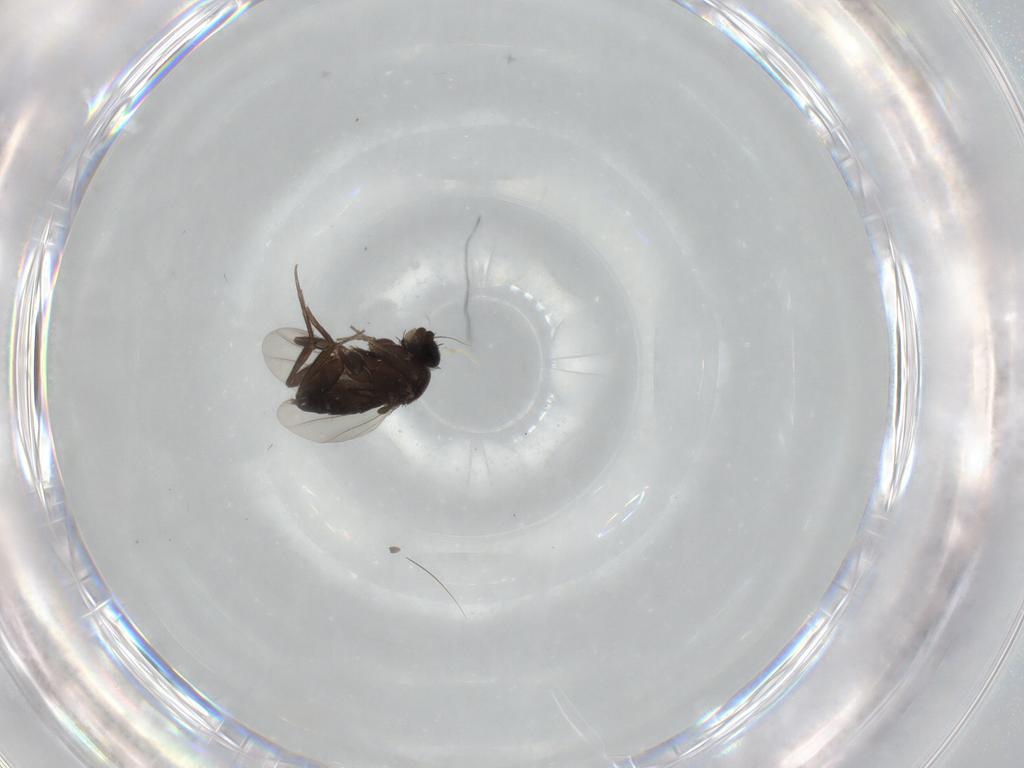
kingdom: Animalia
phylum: Arthropoda
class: Insecta
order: Diptera
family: Phoridae
